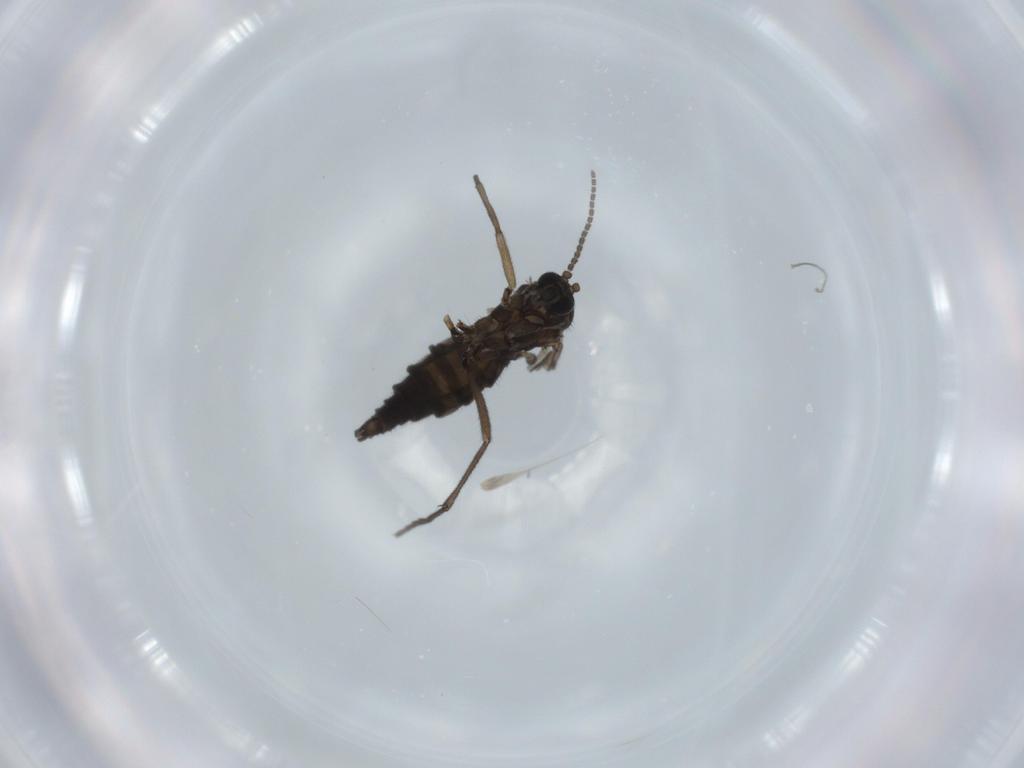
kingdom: Animalia
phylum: Arthropoda
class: Insecta
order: Diptera
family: Sciaridae
